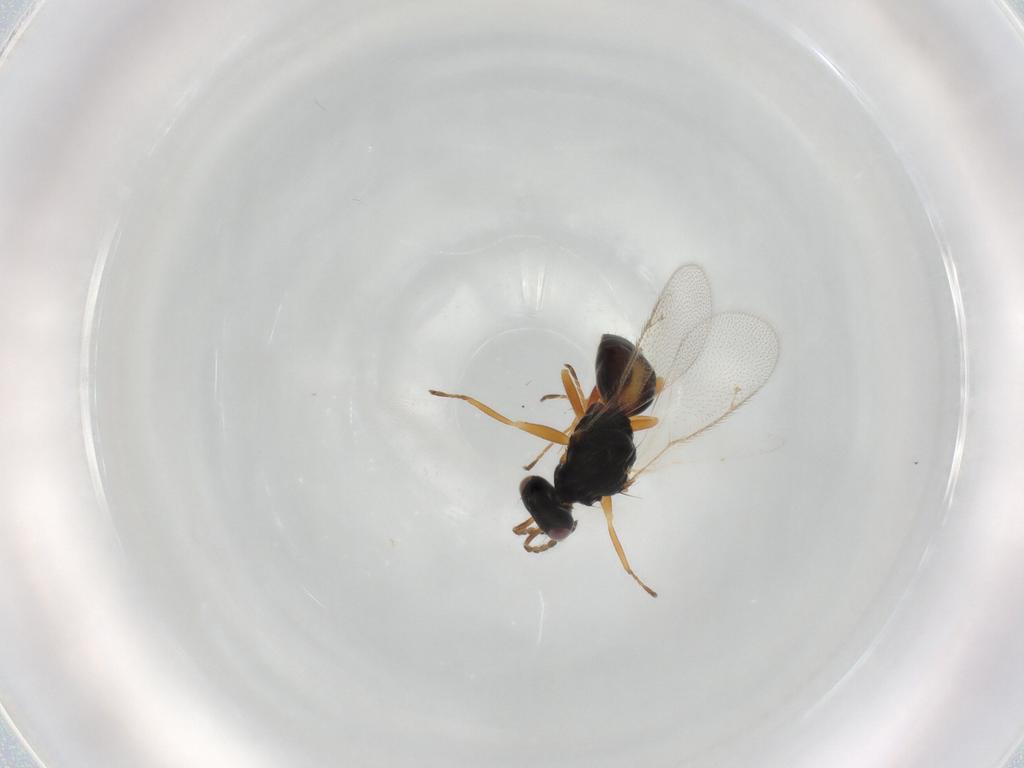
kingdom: Animalia
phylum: Arthropoda
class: Insecta
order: Hymenoptera
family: Eulophidae
